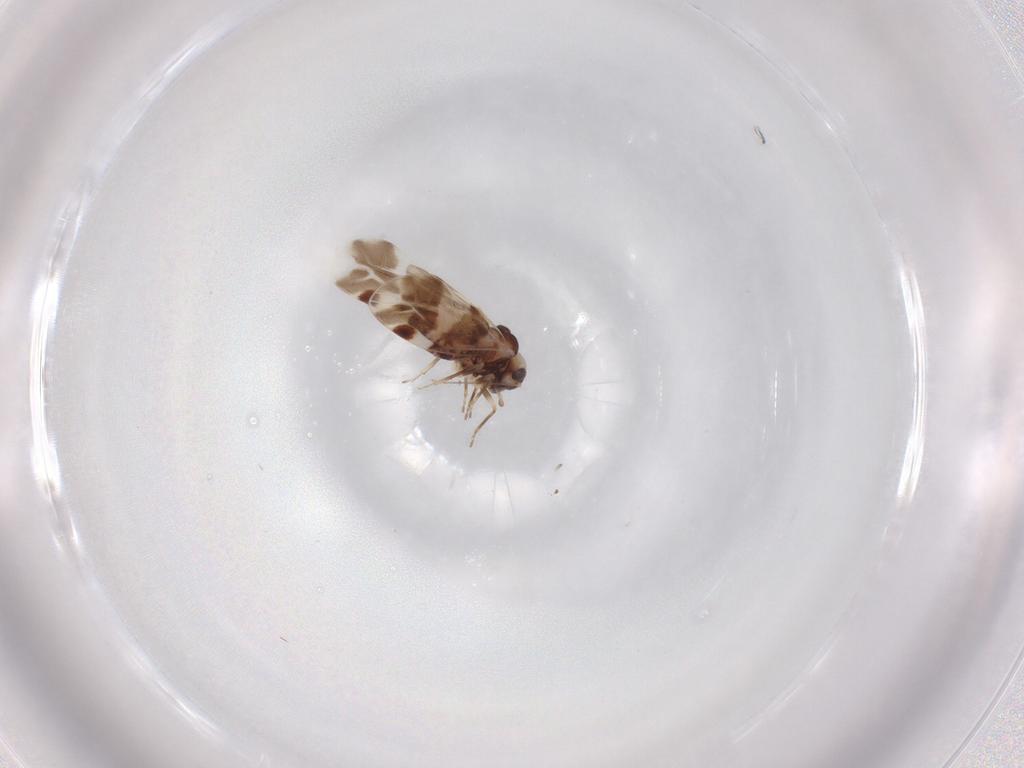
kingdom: Animalia
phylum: Arthropoda
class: Insecta
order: Psocodea
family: Ectopsocidae
